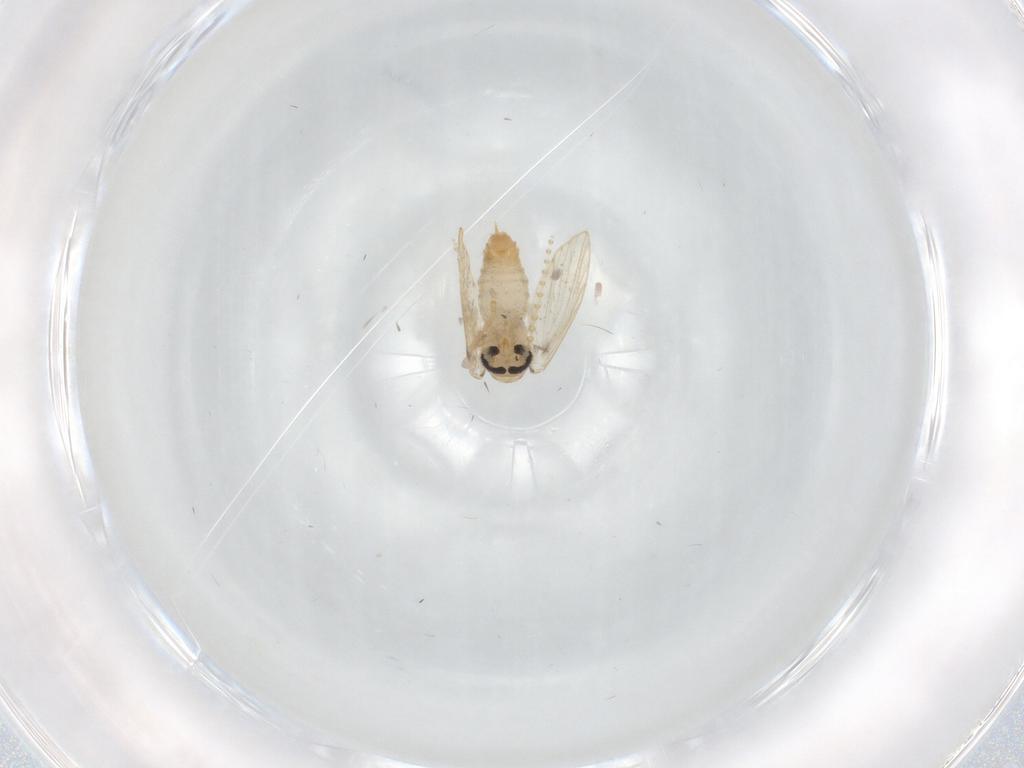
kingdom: Animalia
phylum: Arthropoda
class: Insecta
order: Diptera
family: Psychodidae
